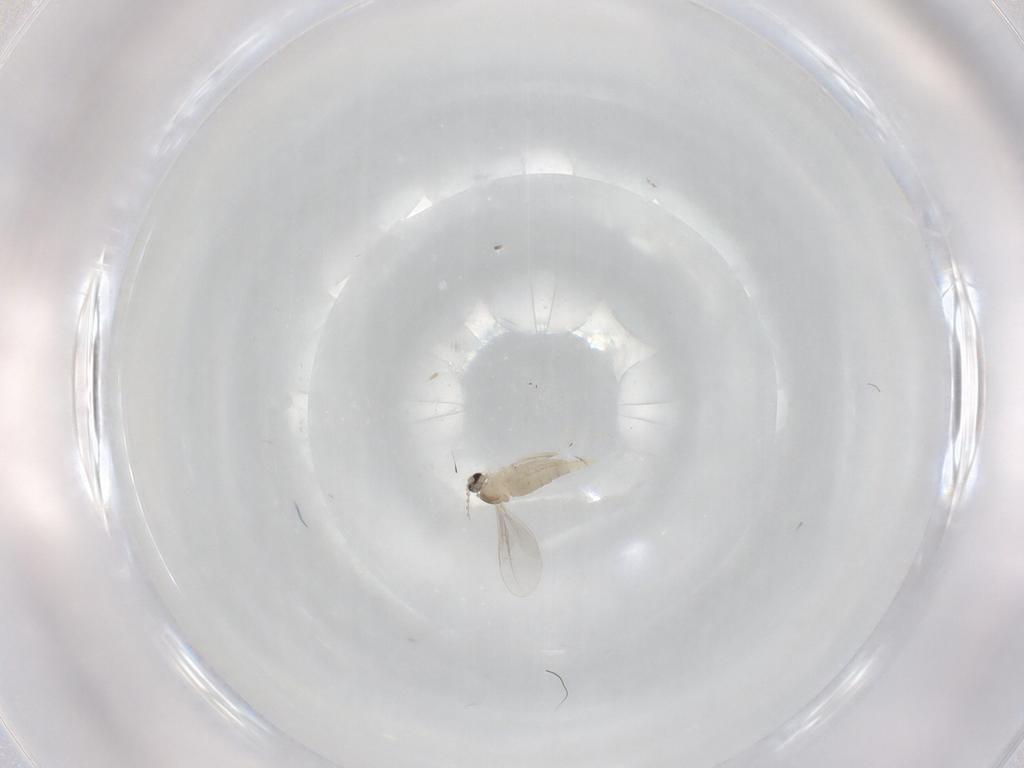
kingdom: Animalia
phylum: Arthropoda
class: Insecta
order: Diptera
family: Cecidomyiidae
